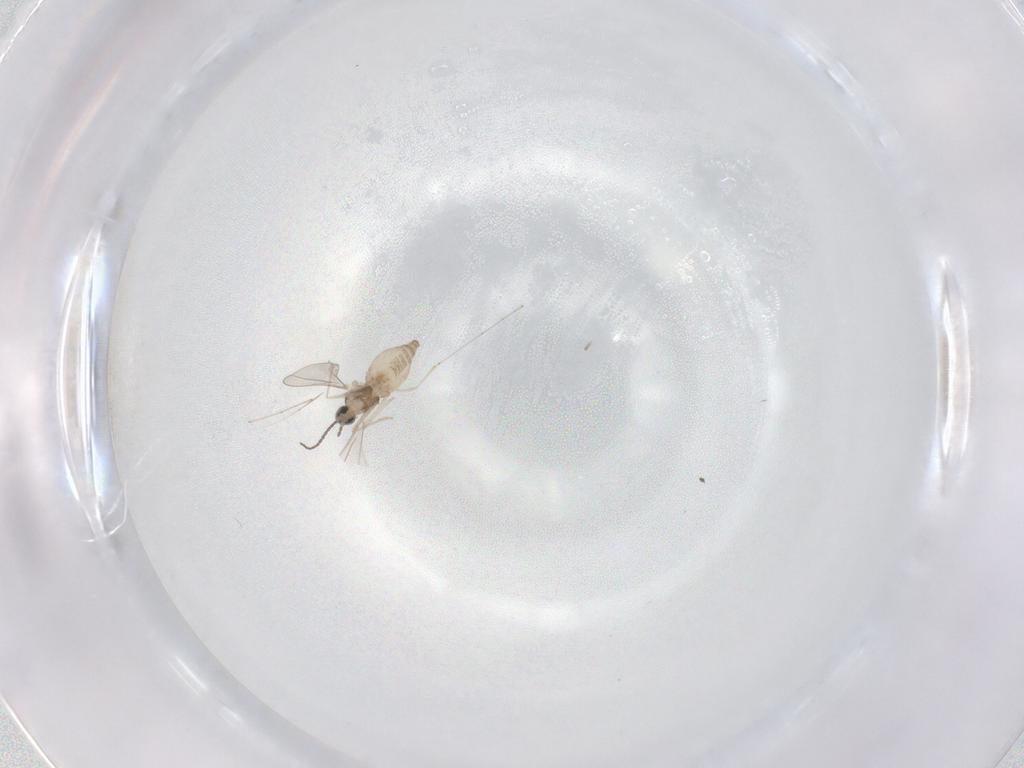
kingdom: Animalia
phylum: Arthropoda
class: Insecta
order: Diptera
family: Cecidomyiidae
